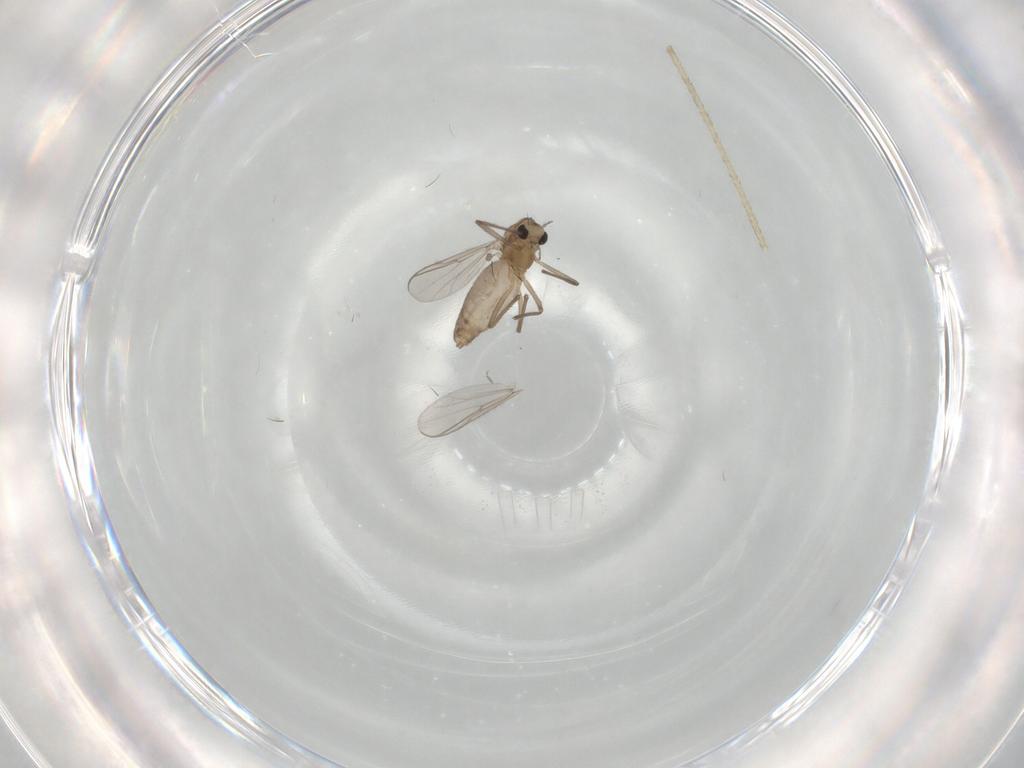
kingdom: Animalia
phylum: Arthropoda
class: Insecta
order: Diptera
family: Chironomidae
